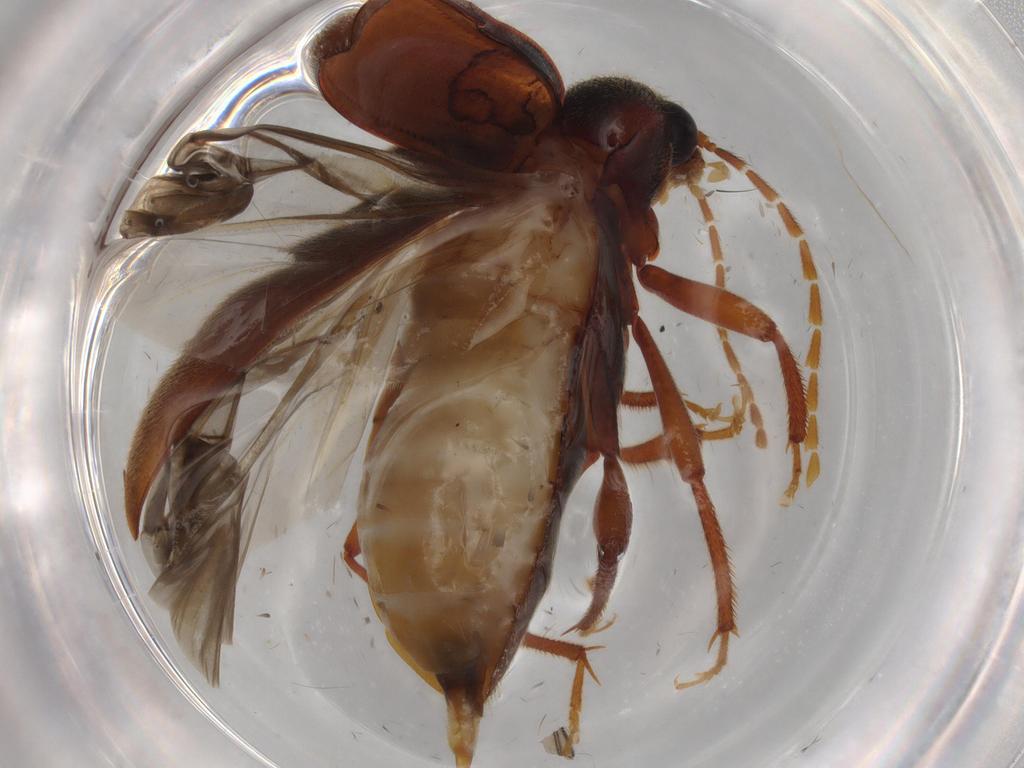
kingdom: Animalia
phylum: Arthropoda
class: Insecta
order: Coleoptera
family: Ptilodactylidae
